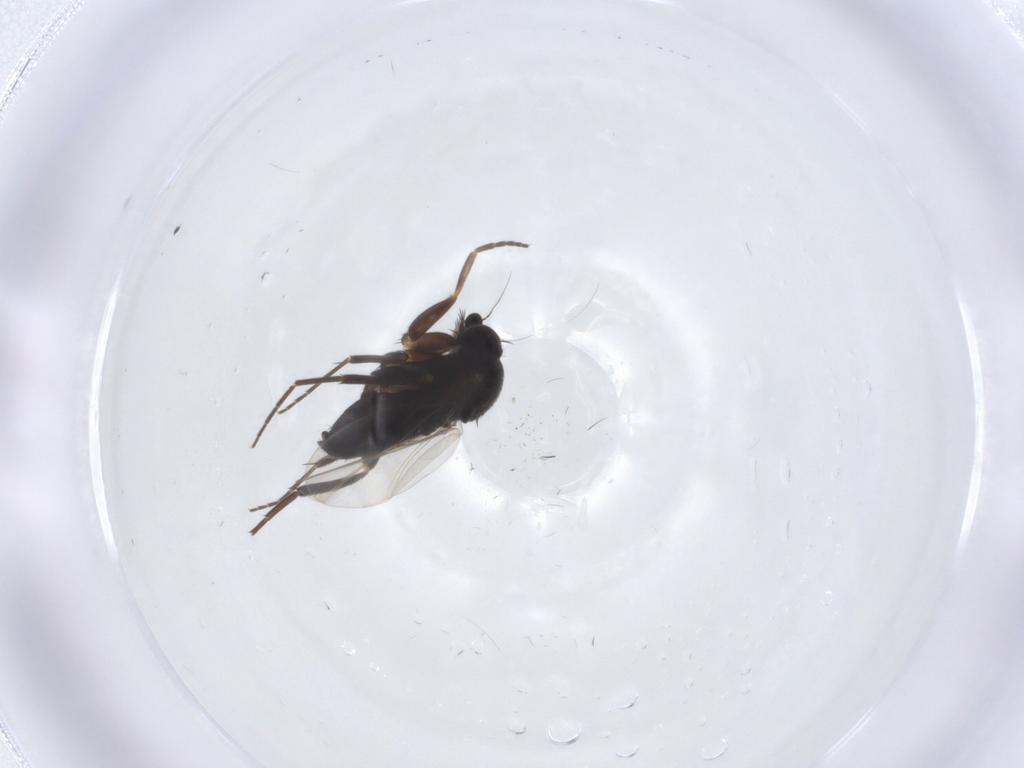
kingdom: Animalia
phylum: Arthropoda
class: Insecta
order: Diptera
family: Phoridae
